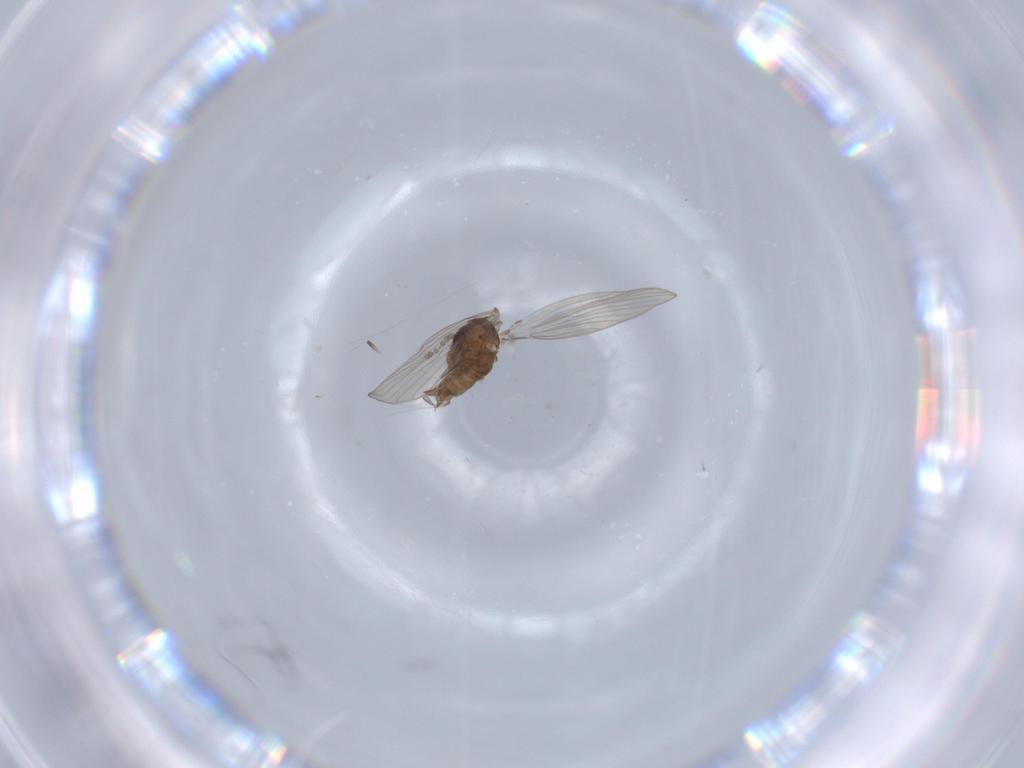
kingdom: Animalia
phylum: Arthropoda
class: Insecta
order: Diptera
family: Psychodidae
